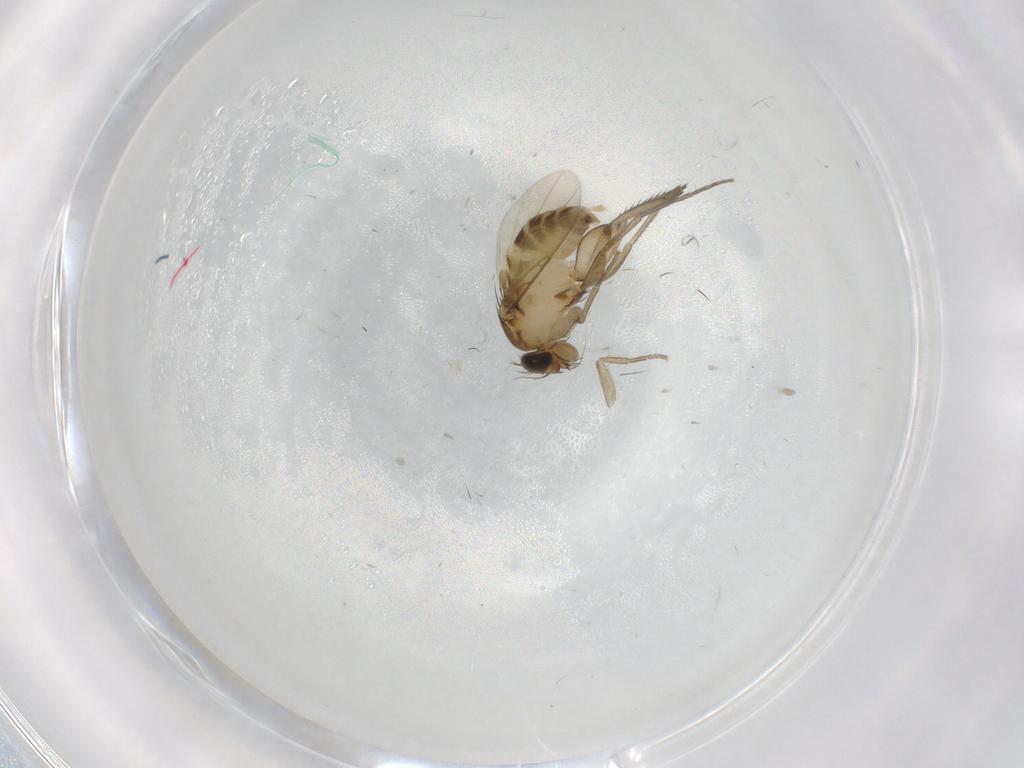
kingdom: Animalia
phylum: Arthropoda
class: Insecta
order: Diptera
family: Phoridae
